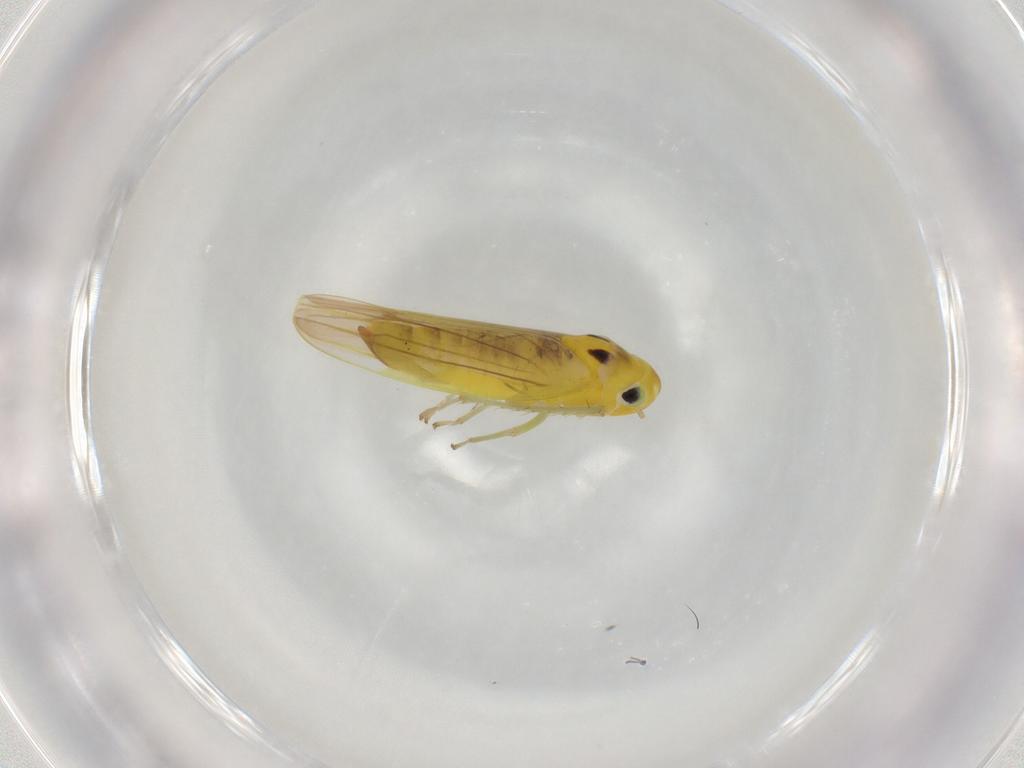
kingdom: Animalia
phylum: Arthropoda
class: Insecta
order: Hemiptera
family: Cicadellidae
